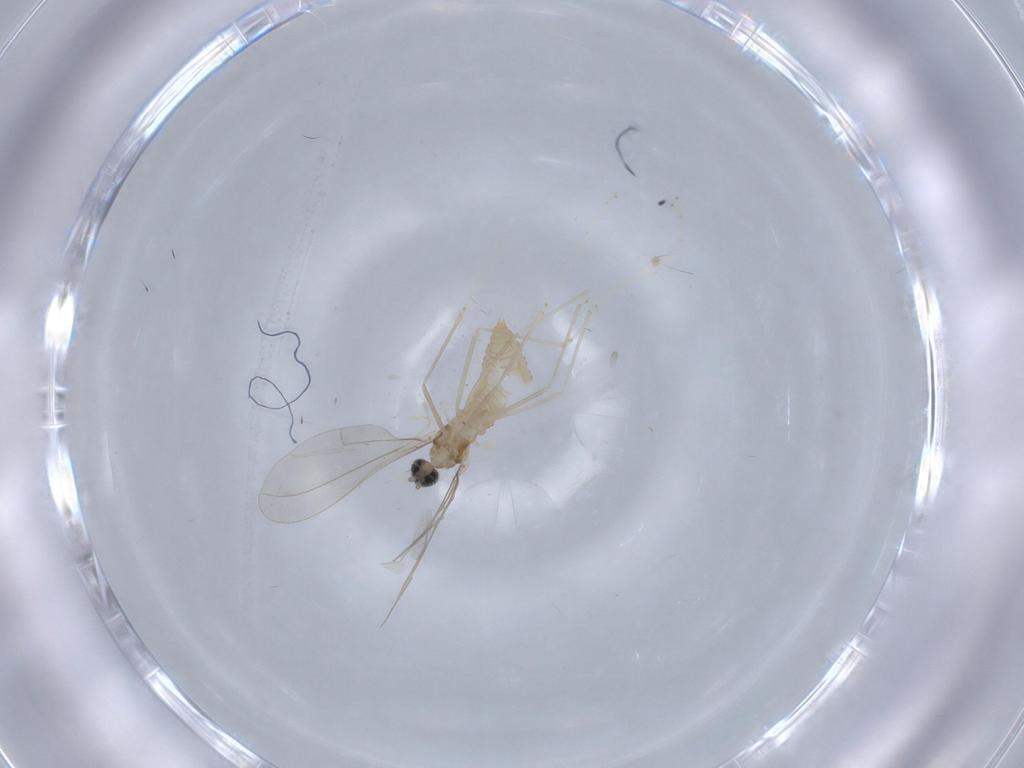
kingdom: Animalia
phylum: Arthropoda
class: Insecta
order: Diptera
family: Cecidomyiidae
